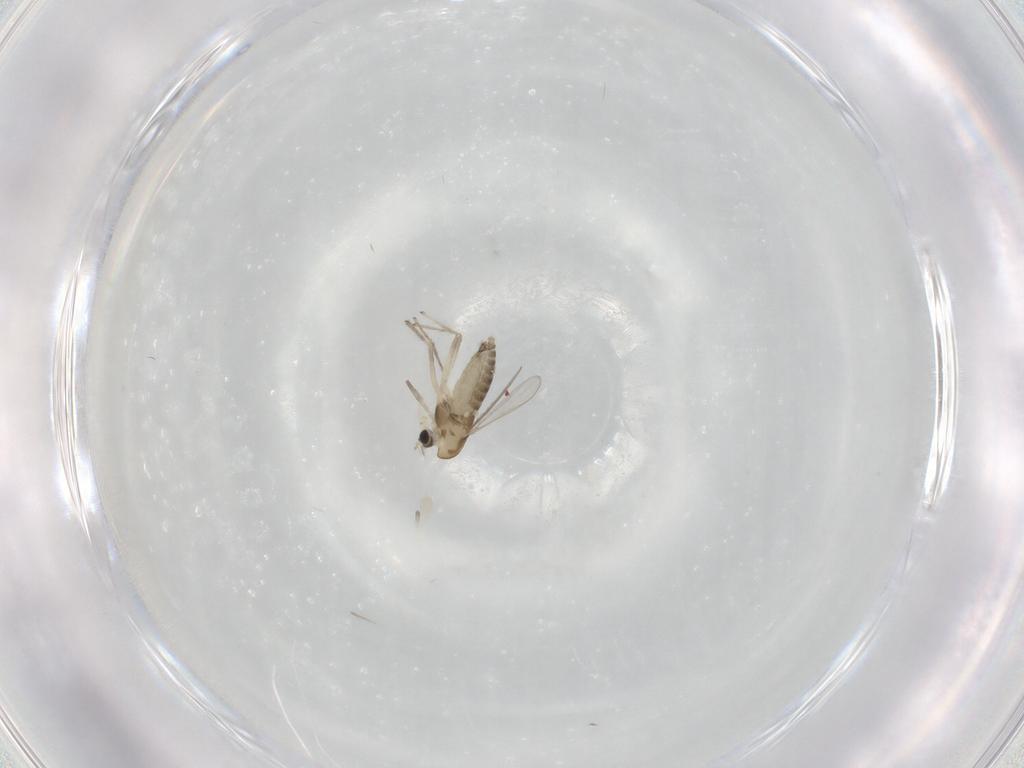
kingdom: Animalia
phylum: Arthropoda
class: Insecta
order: Diptera
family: Chironomidae
